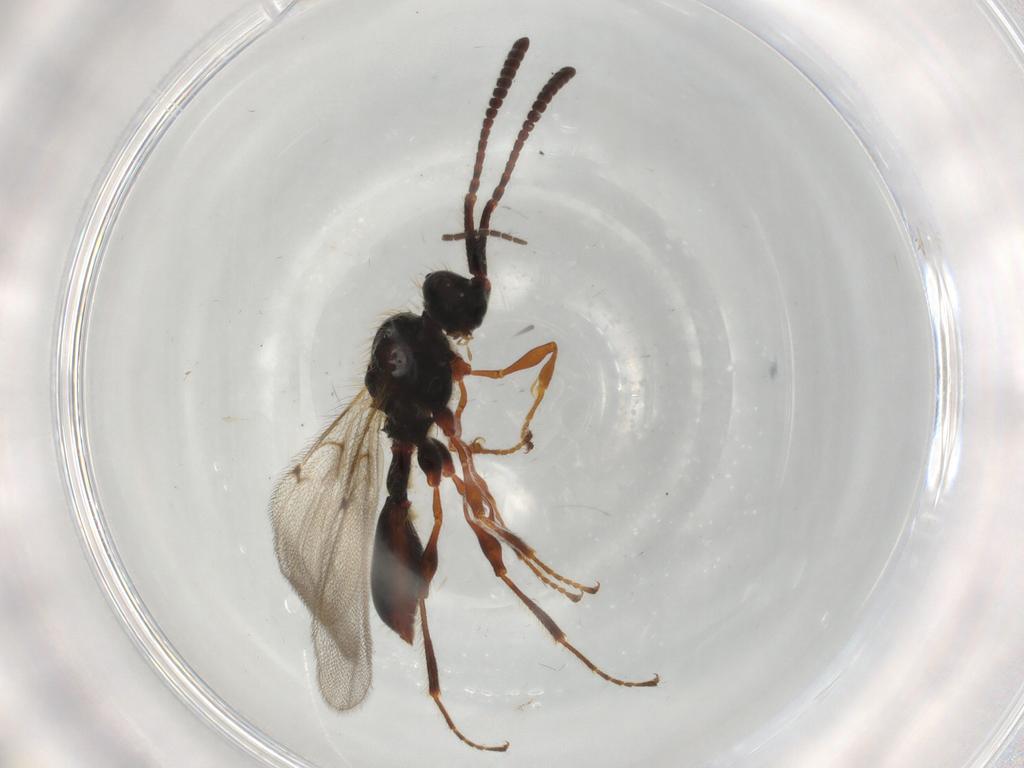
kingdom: Animalia
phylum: Arthropoda
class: Insecta
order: Hymenoptera
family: Diapriidae
